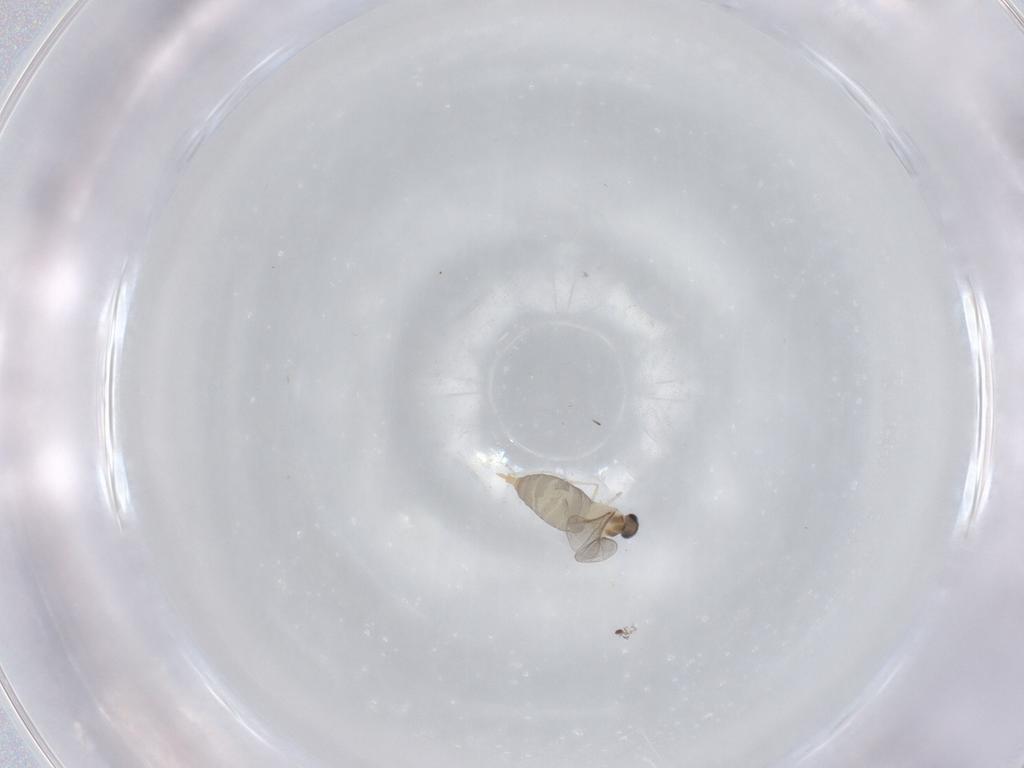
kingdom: Animalia
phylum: Arthropoda
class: Insecta
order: Diptera
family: Cecidomyiidae
